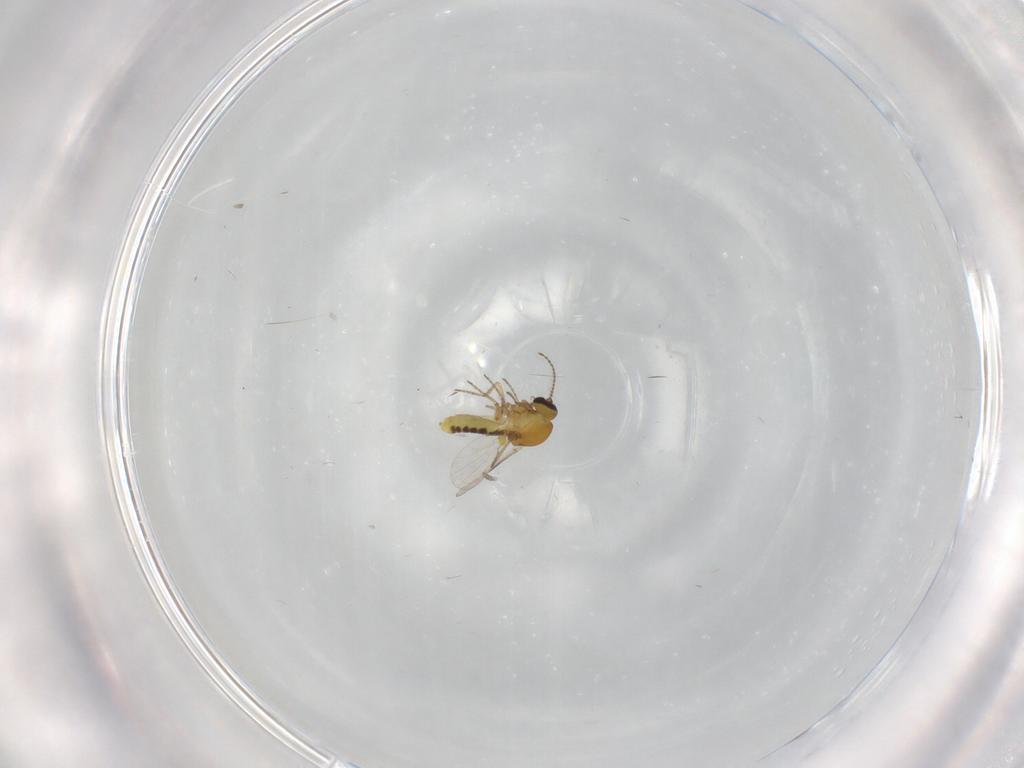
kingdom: Animalia
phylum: Arthropoda
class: Insecta
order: Diptera
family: Ceratopogonidae
